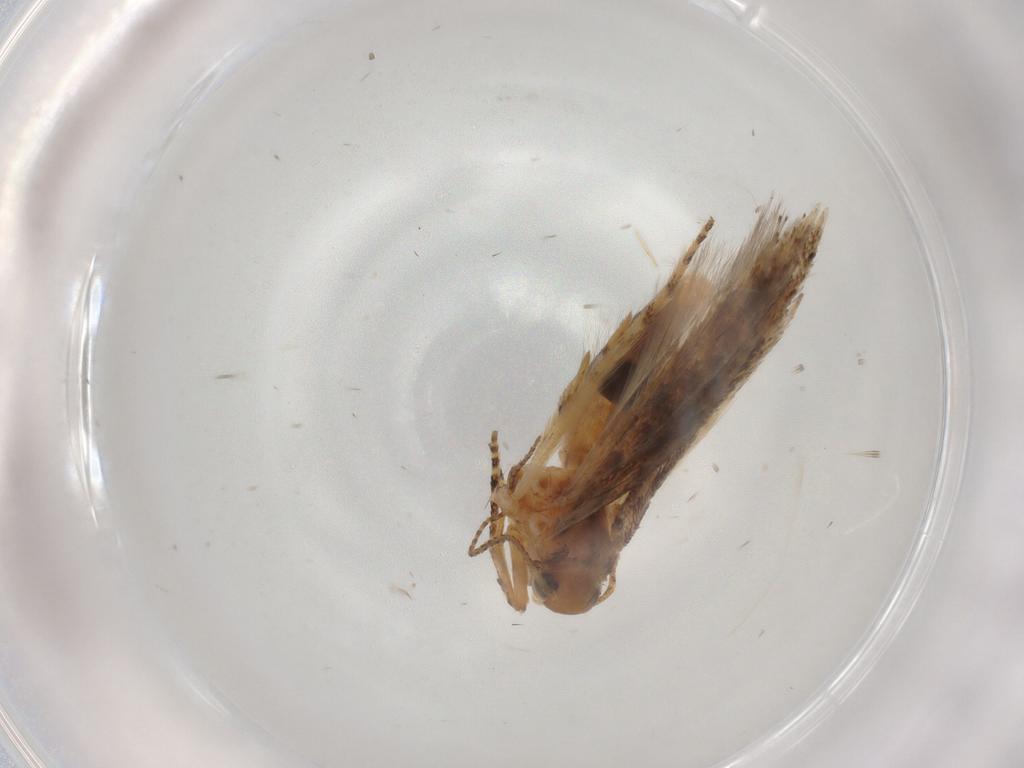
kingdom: Animalia
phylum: Arthropoda
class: Insecta
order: Lepidoptera
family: Gelechiidae
